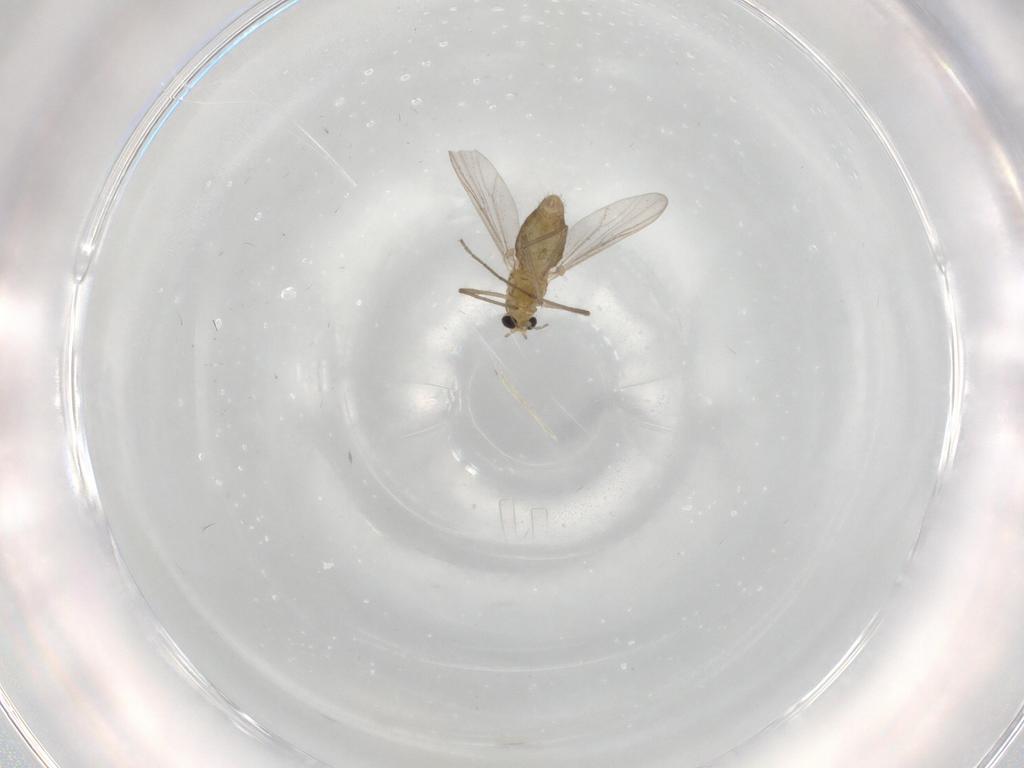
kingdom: Animalia
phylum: Arthropoda
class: Insecta
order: Diptera
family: Chironomidae
